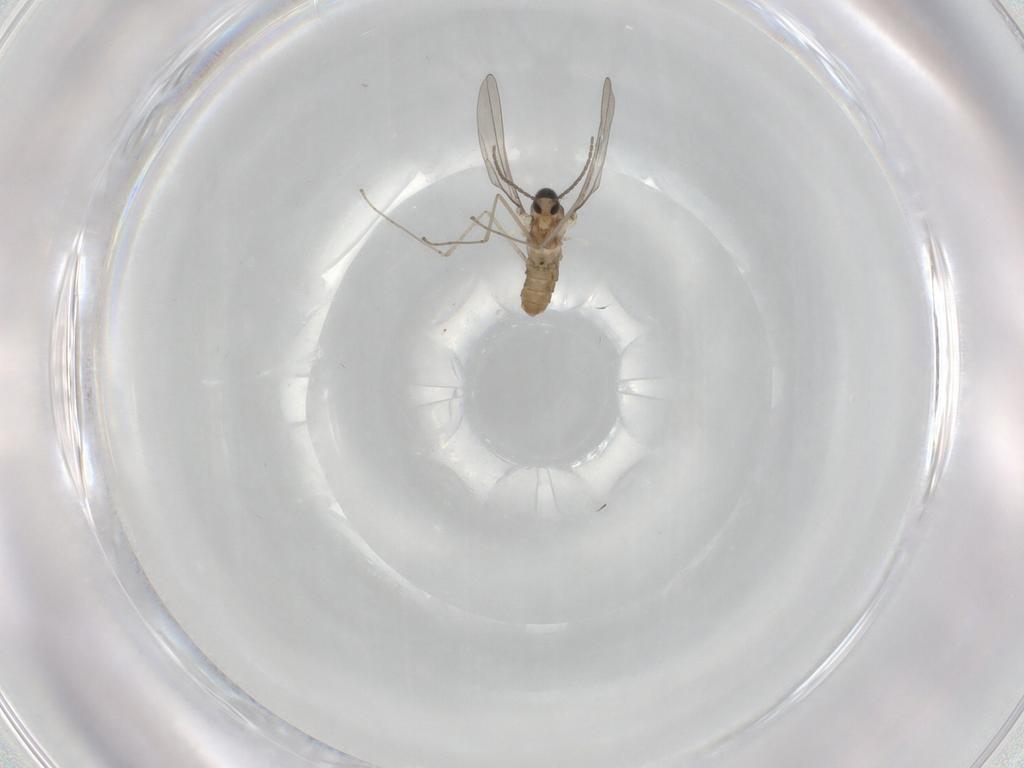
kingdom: Animalia
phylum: Arthropoda
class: Insecta
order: Diptera
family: Cecidomyiidae
